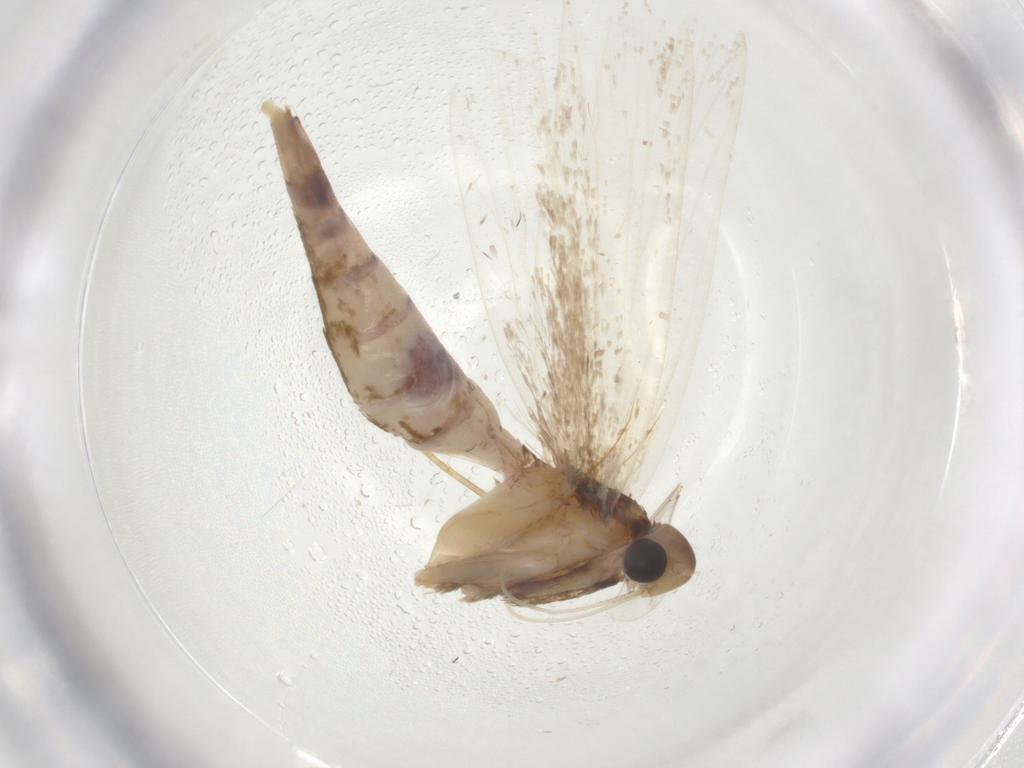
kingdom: Animalia
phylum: Arthropoda
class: Insecta
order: Lepidoptera
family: Gelechiidae
